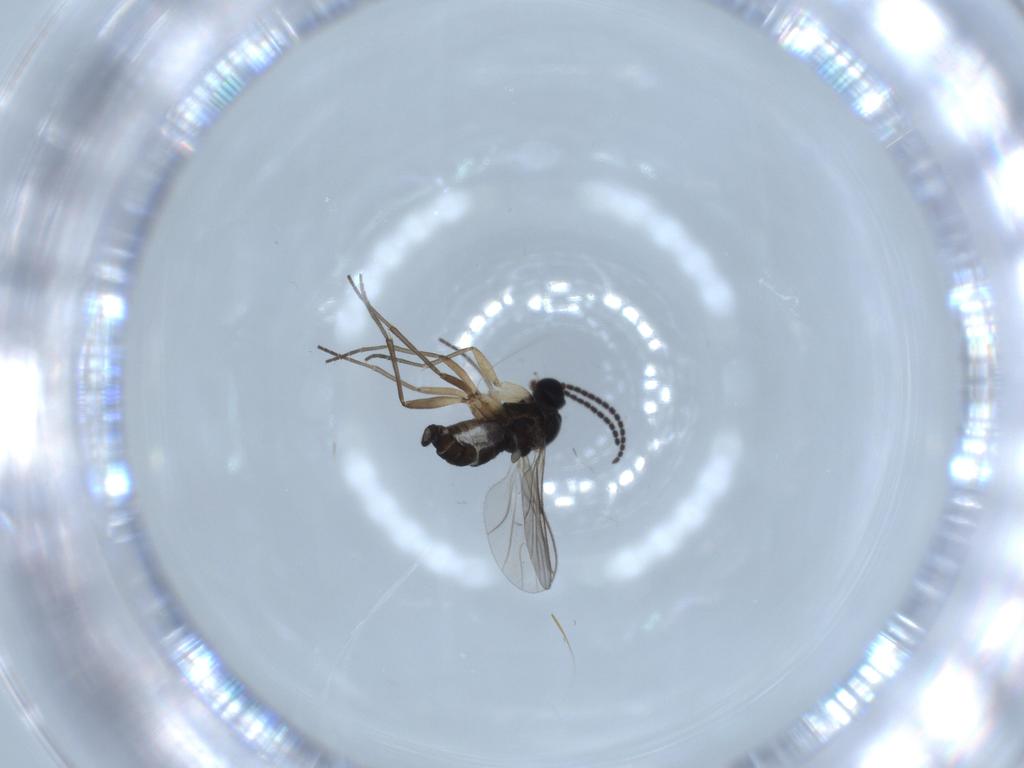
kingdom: Animalia
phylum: Arthropoda
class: Insecta
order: Diptera
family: Sciaridae
